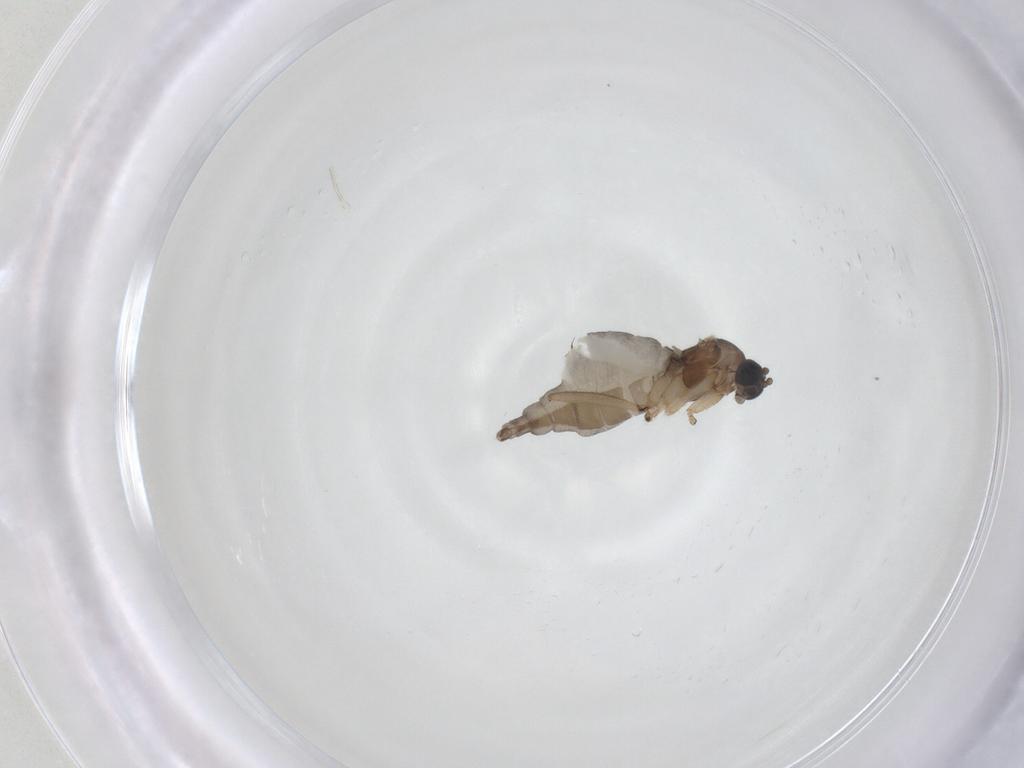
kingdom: Animalia
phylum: Arthropoda
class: Insecta
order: Diptera
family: Sciaridae
